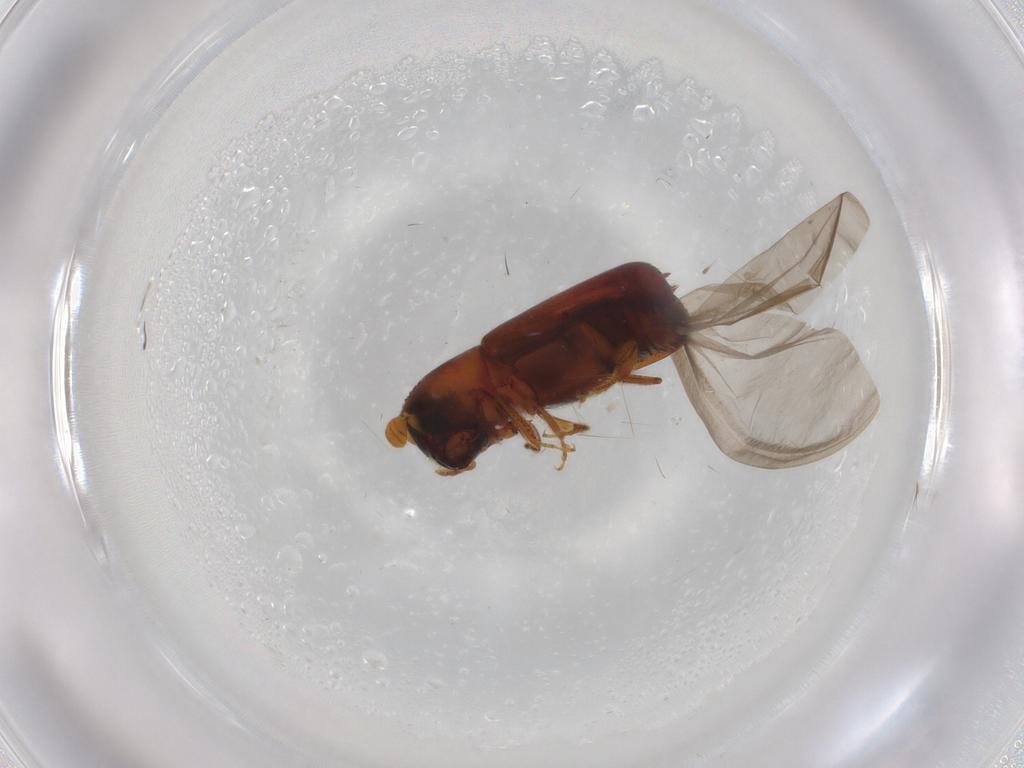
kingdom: Animalia
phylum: Arthropoda
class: Insecta
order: Coleoptera
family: Curculionidae
